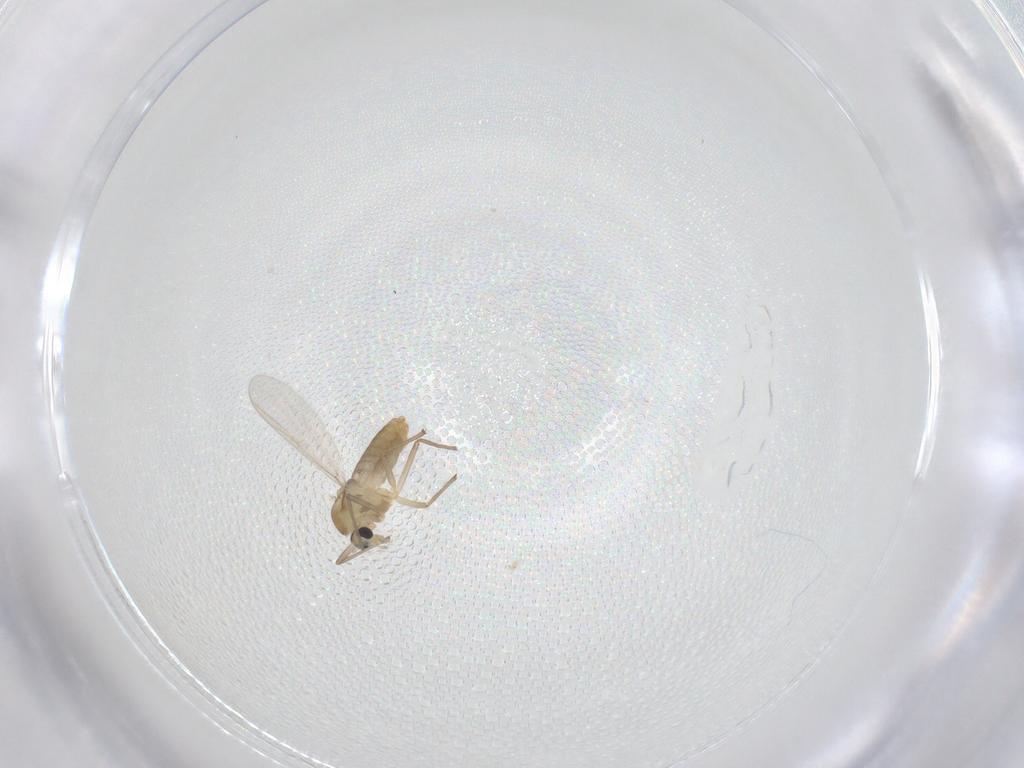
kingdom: Animalia
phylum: Arthropoda
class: Insecta
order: Diptera
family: Chironomidae
